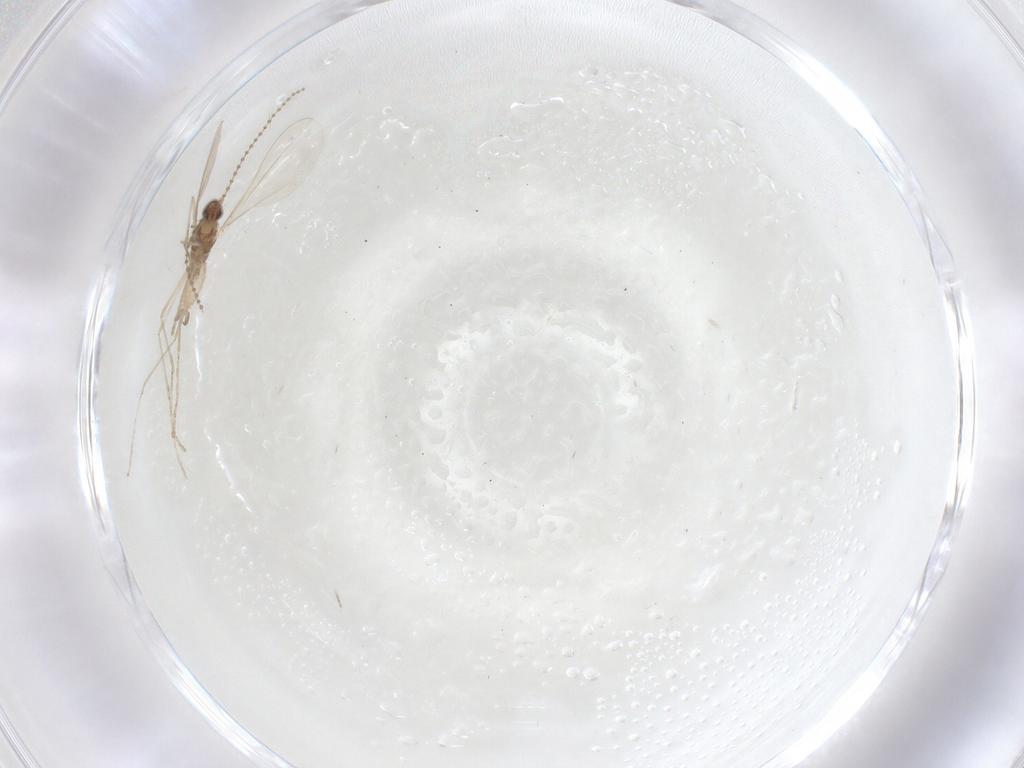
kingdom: Animalia
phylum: Arthropoda
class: Insecta
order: Diptera
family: Cecidomyiidae
